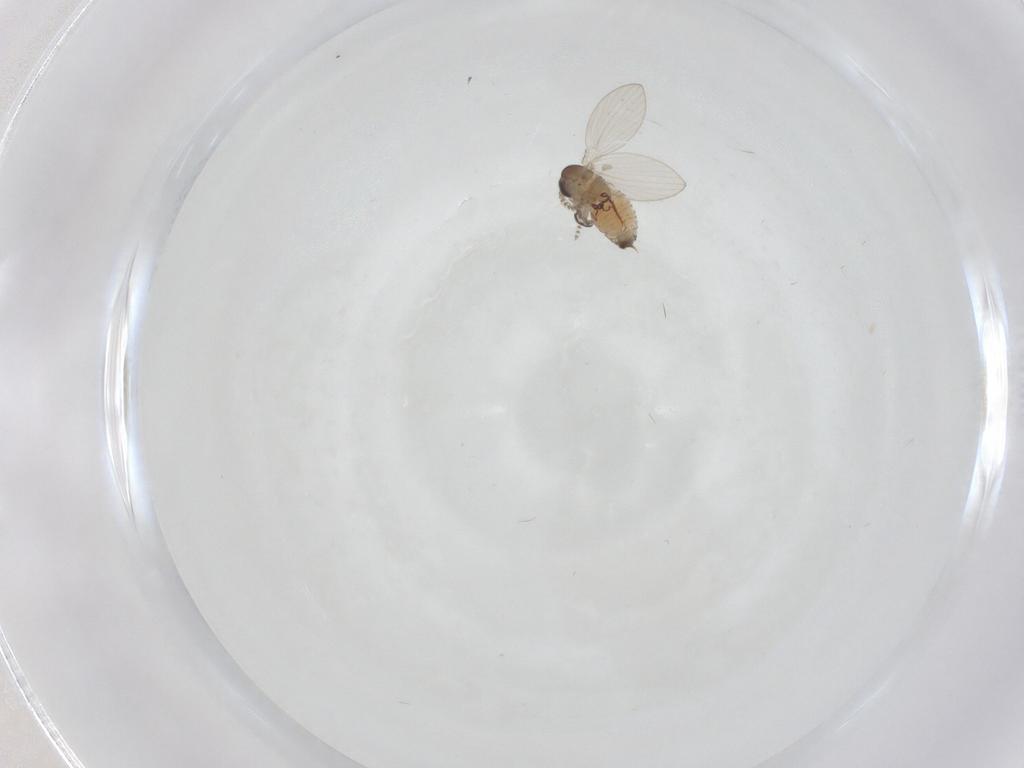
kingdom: Animalia
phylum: Arthropoda
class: Insecta
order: Diptera
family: Psychodidae
